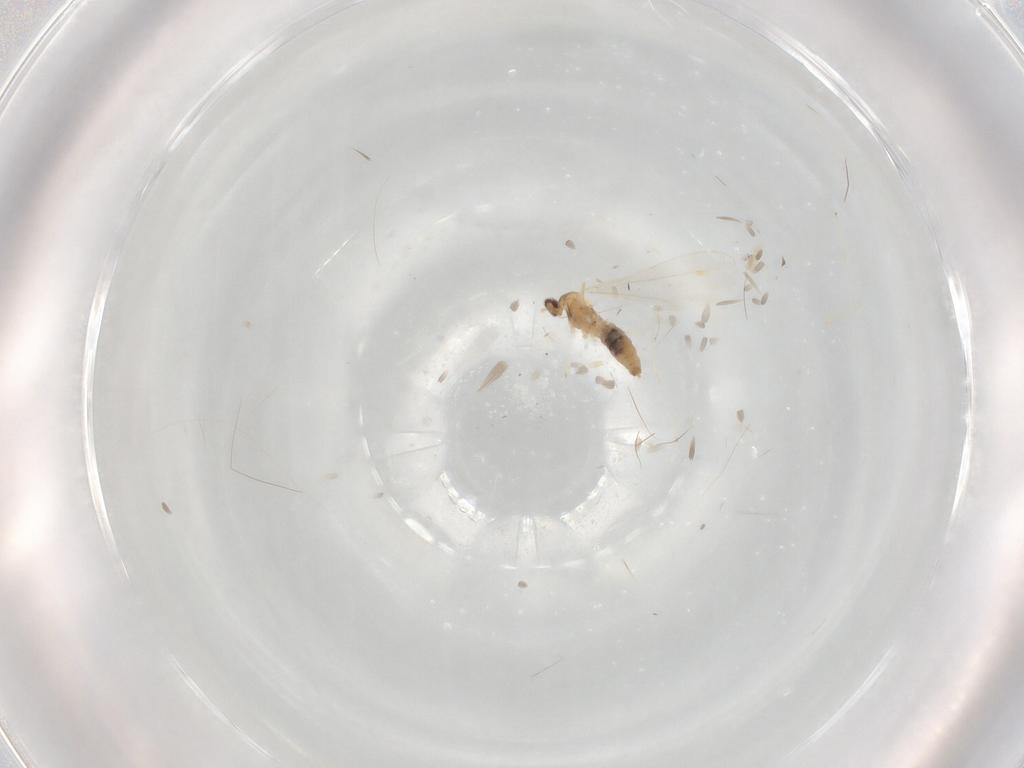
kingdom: Animalia
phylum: Arthropoda
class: Insecta
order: Diptera
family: Cecidomyiidae
